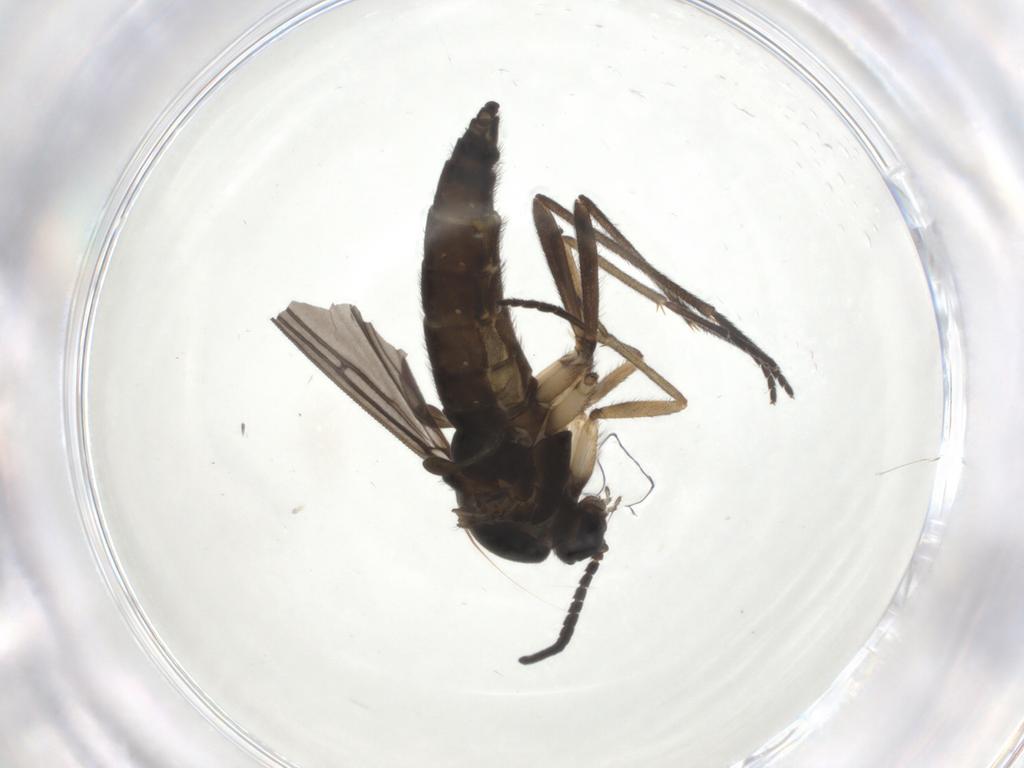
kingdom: Animalia
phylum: Arthropoda
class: Insecta
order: Diptera
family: Sciaridae
